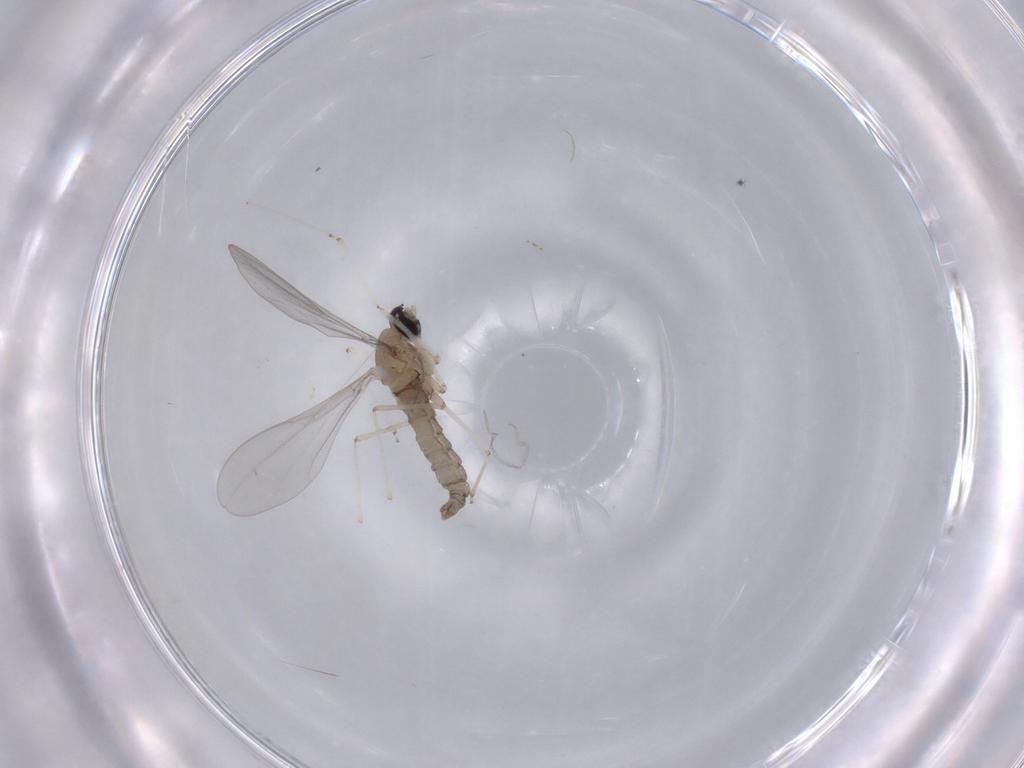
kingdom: Animalia
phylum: Arthropoda
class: Insecta
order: Diptera
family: Cecidomyiidae
